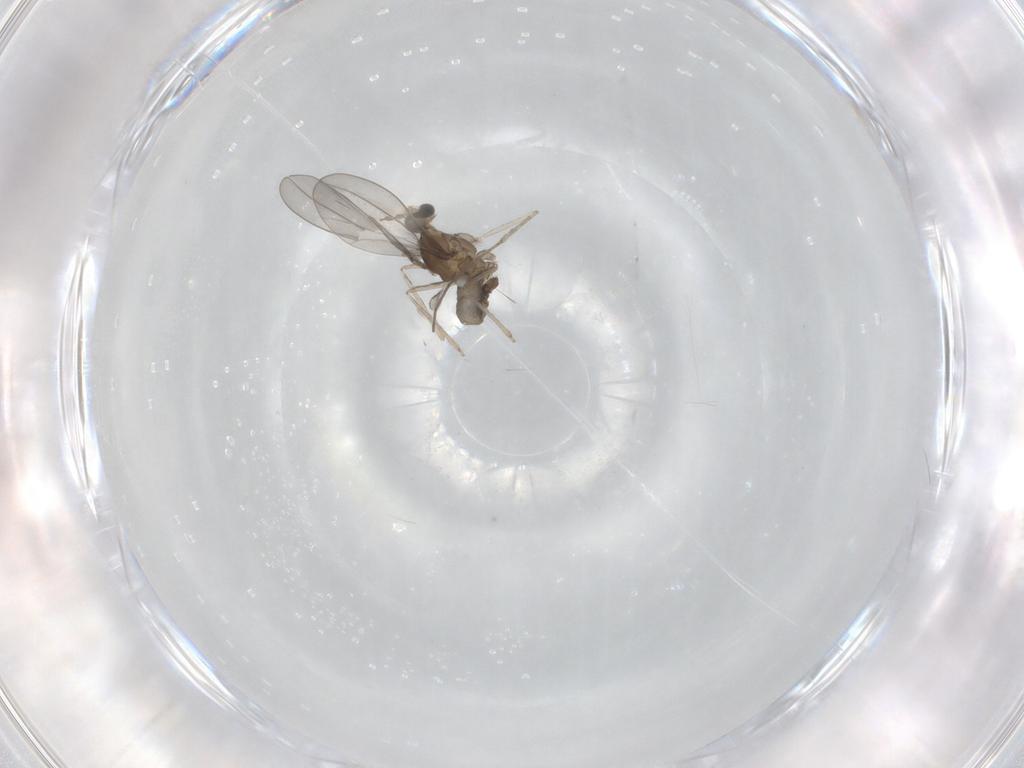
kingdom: Animalia
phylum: Arthropoda
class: Insecta
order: Diptera
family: Cecidomyiidae
